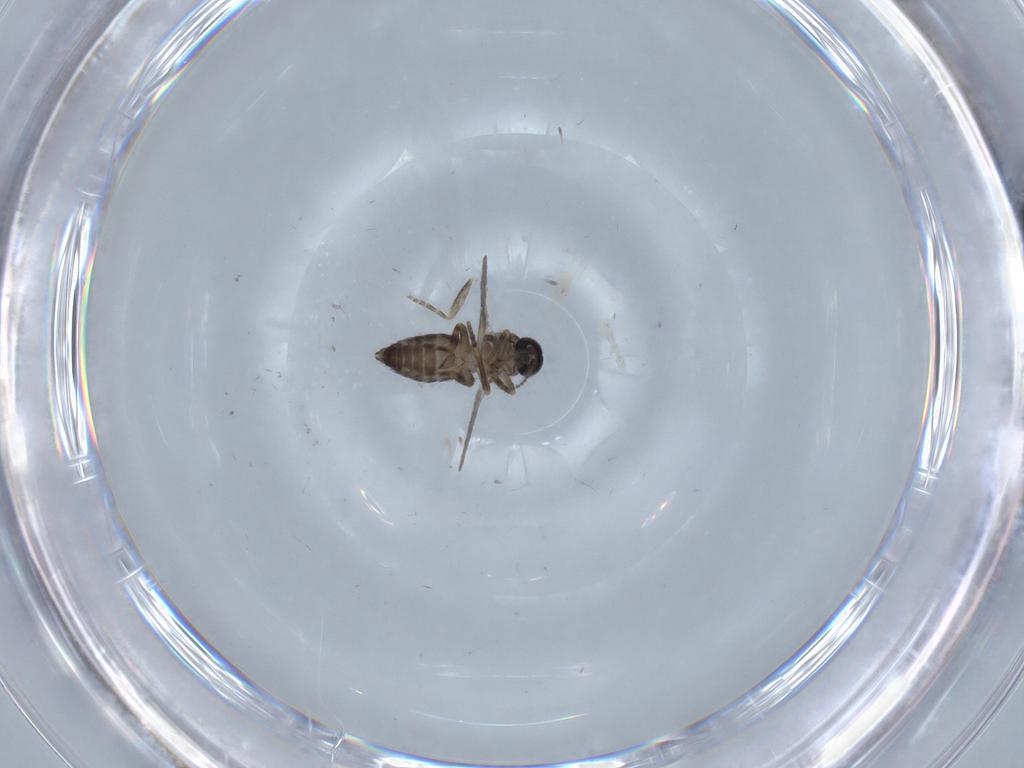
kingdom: Animalia
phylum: Arthropoda
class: Insecta
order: Diptera
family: Ceratopogonidae
